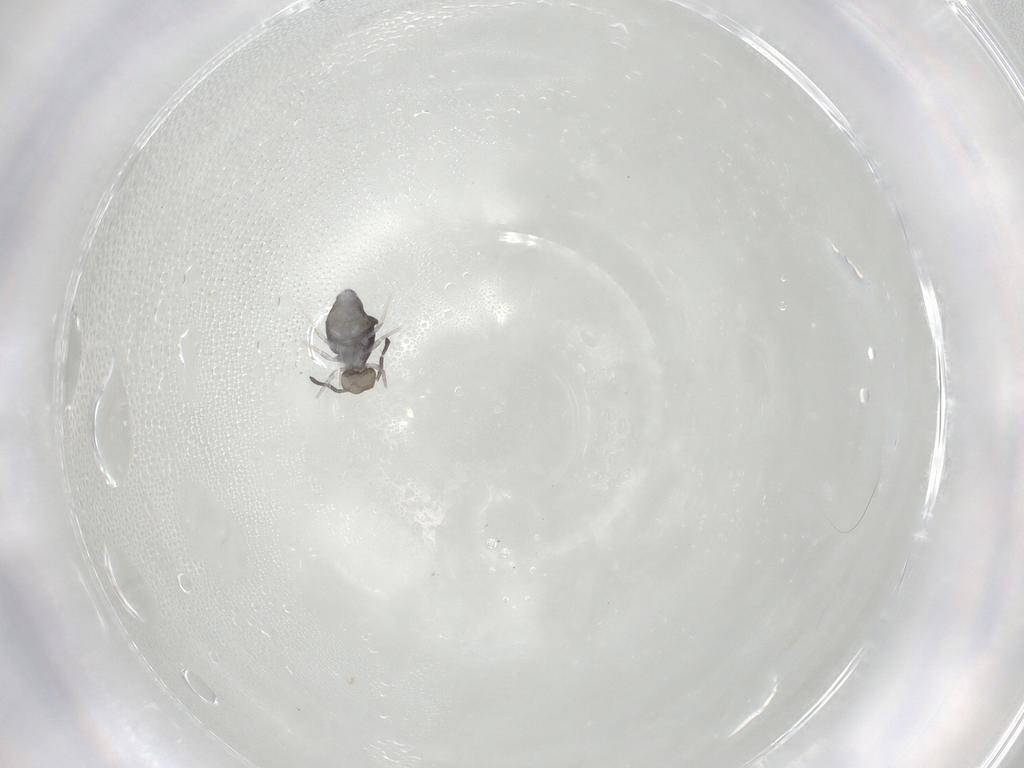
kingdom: Animalia
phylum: Arthropoda
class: Collembola
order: Symphypleona
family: Katiannidae
